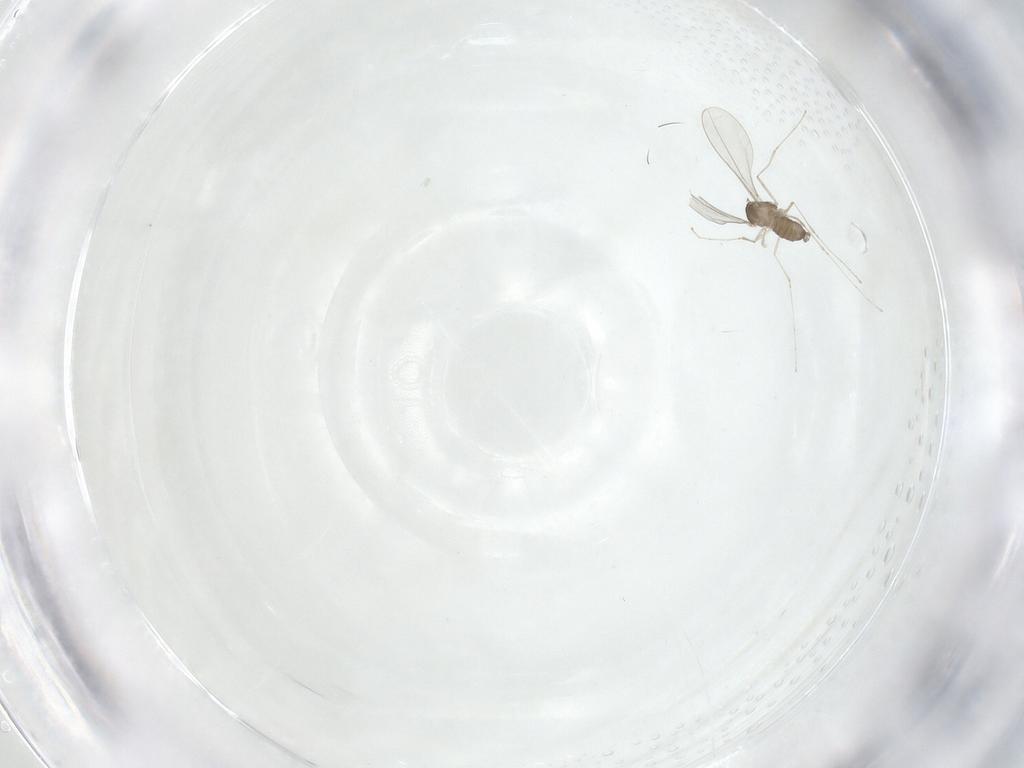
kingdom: Animalia
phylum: Arthropoda
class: Insecta
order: Diptera
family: Cecidomyiidae
